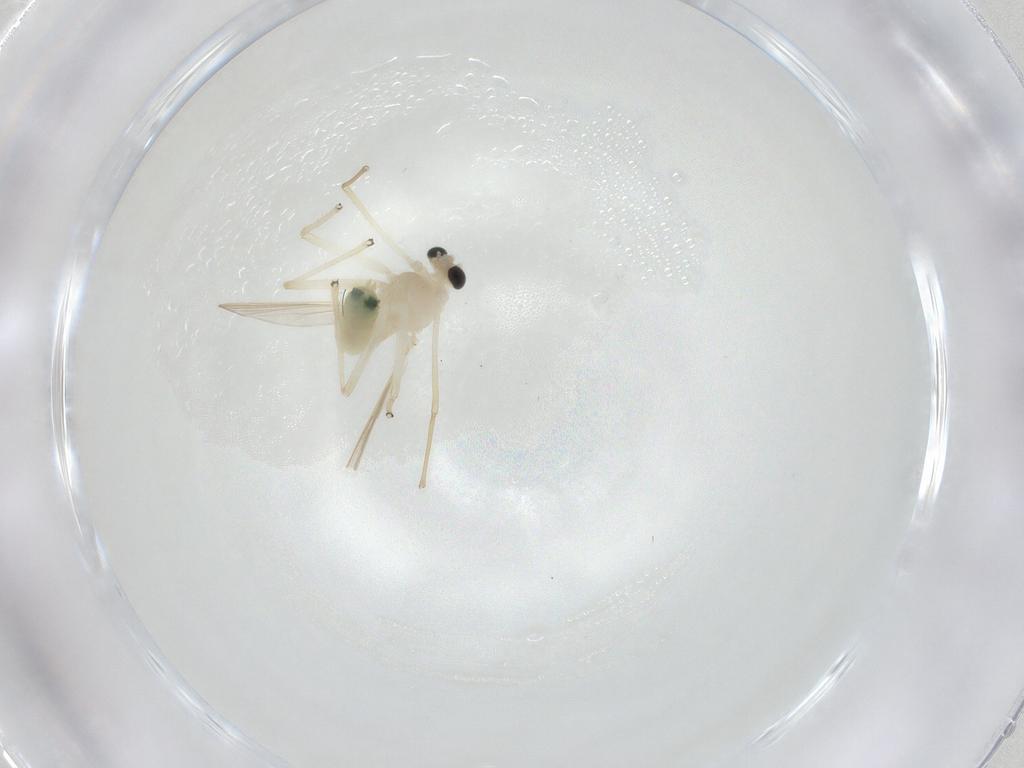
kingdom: Animalia
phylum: Arthropoda
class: Insecta
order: Diptera
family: Chironomidae
